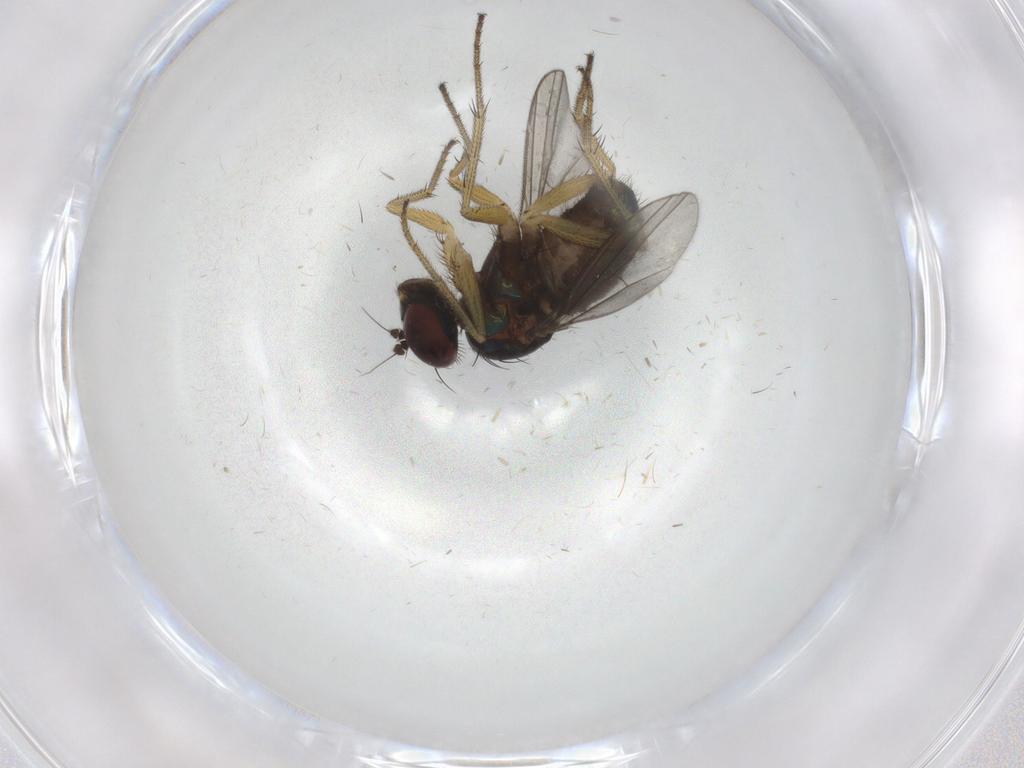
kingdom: Animalia
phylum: Arthropoda
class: Insecta
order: Diptera
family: Dolichopodidae
